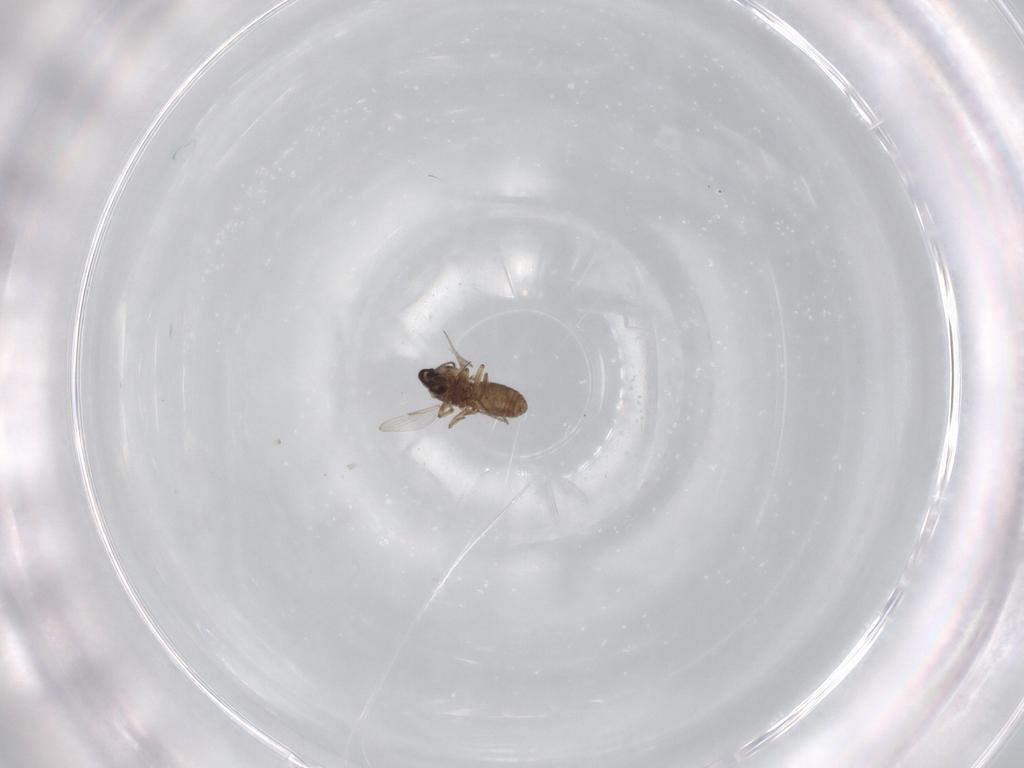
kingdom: Animalia
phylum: Arthropoda
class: Insecta
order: Diptera
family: Ceratopogonidae
